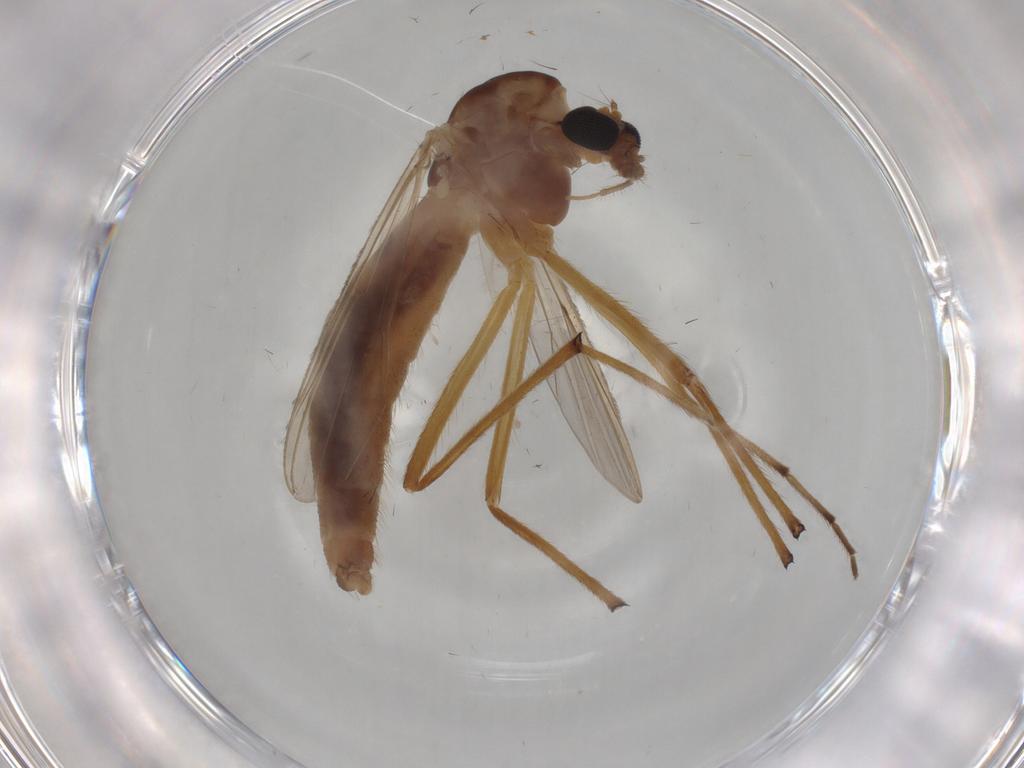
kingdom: Animalia
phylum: Arthropoda
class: Insecta
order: Diptera
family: Chironomidae
